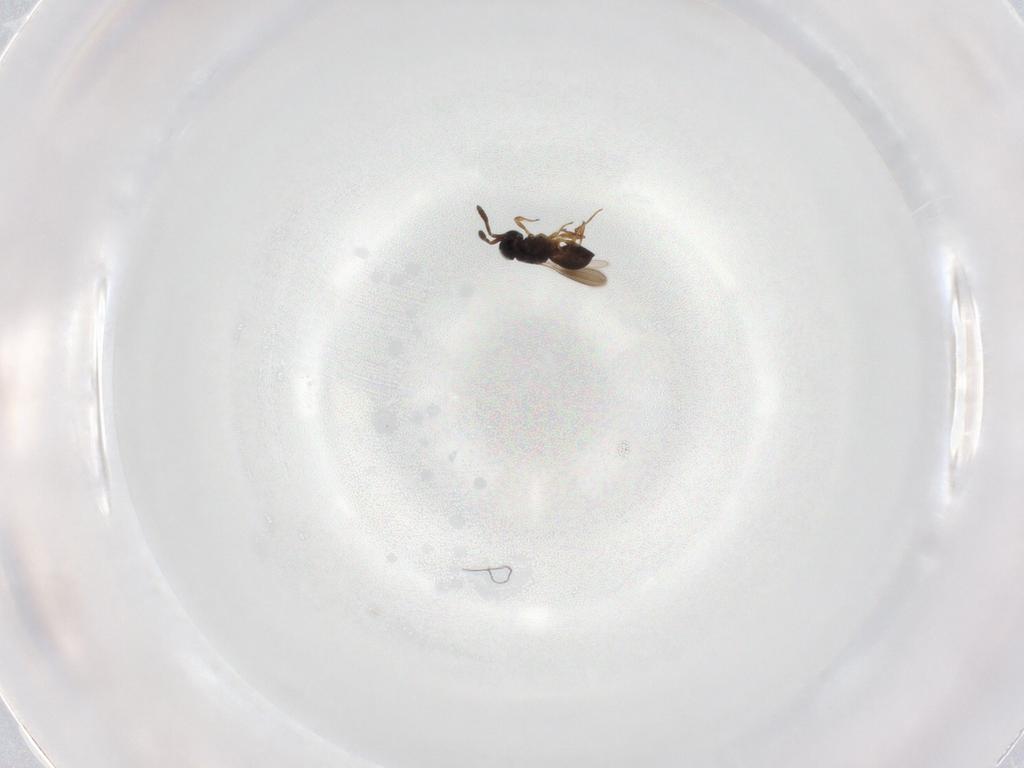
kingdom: Animalia
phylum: Arthropoda
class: Insecta
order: Hymenoptera
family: Scelionidae
